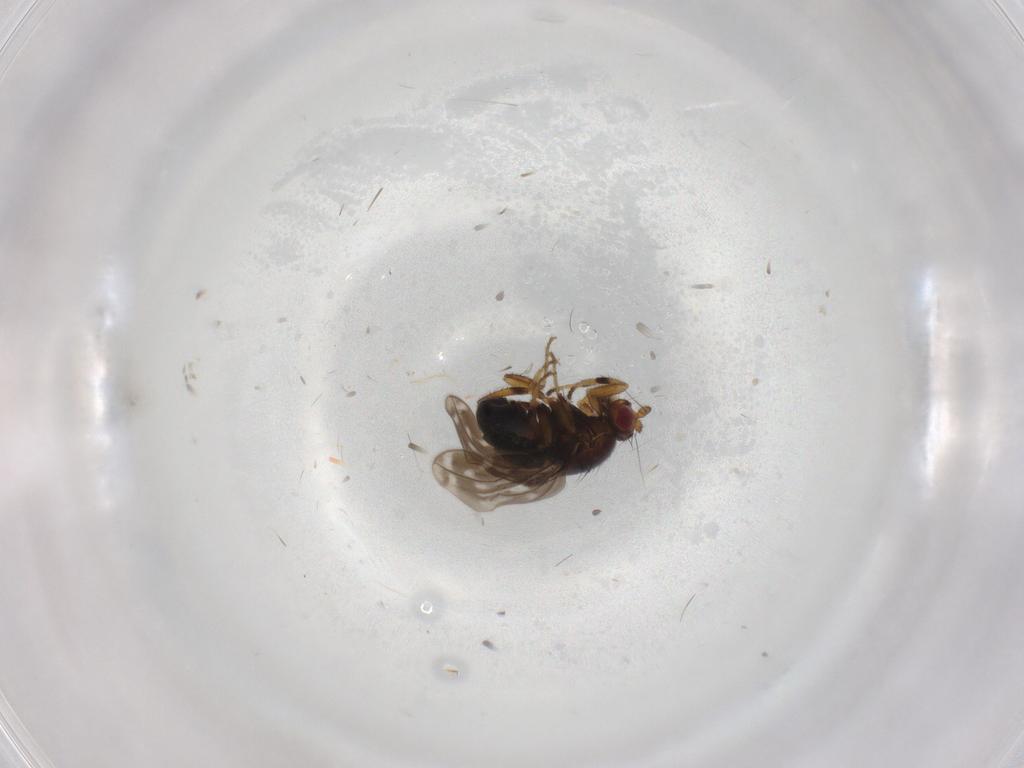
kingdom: Animalia
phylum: Arthropoda
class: Insecta
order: Diptera
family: Sphaeroceridae
